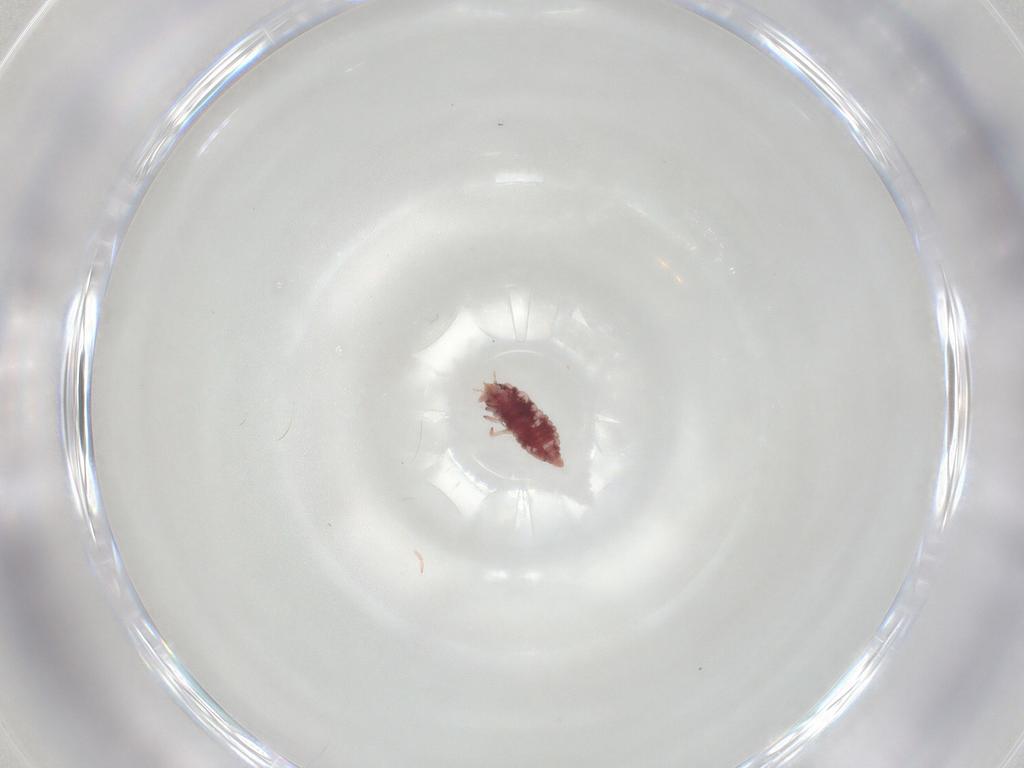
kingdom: Animalia
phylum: Arthropoda
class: Insecta
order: Neuroptera
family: Coniopterygidae
